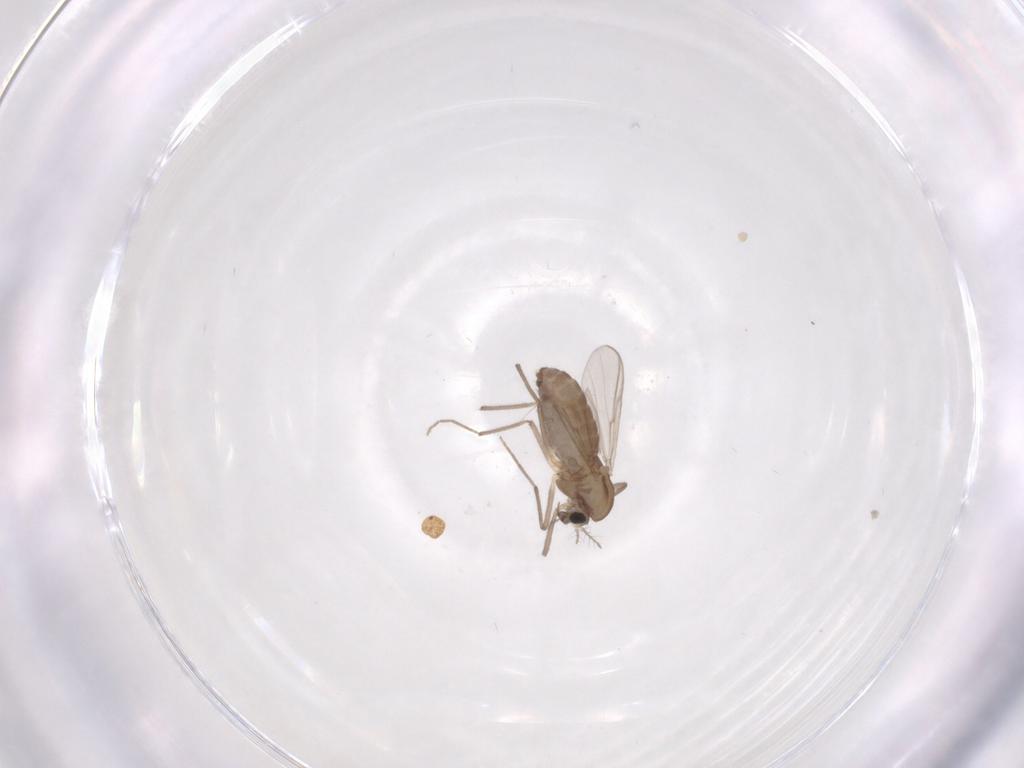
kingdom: Animalia
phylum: Arthropoda
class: Insecta
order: Diptera
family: Chironomidae
